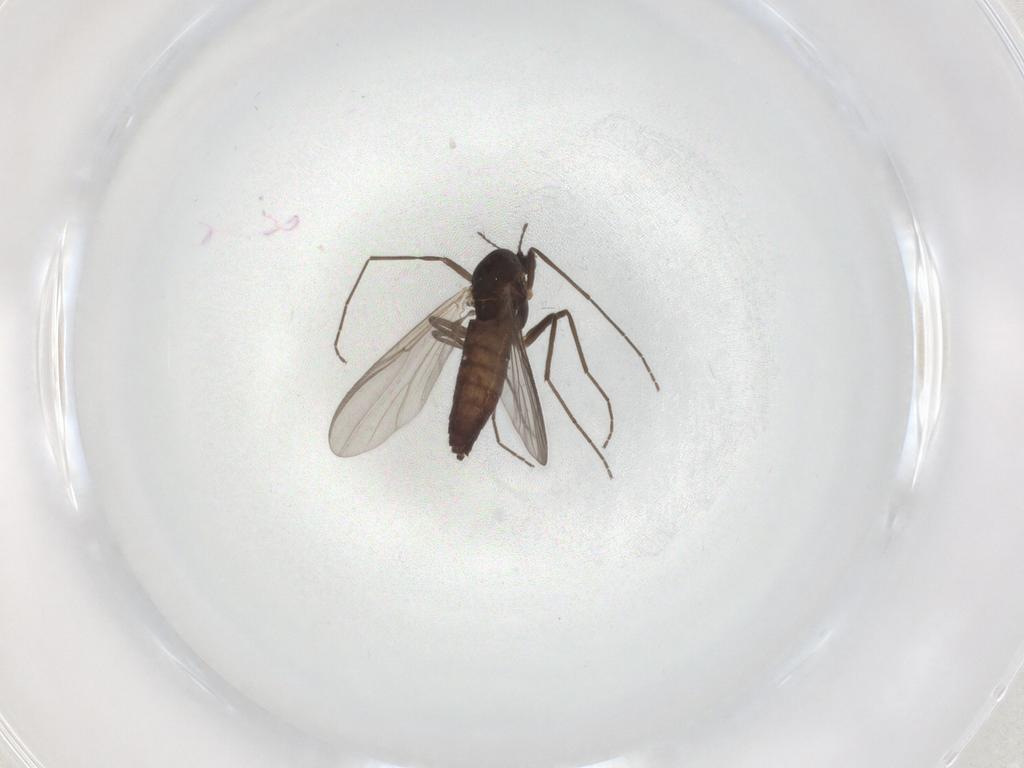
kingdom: Animalia
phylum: Arthropoda
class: Insecta
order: Diptera
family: Chironomidae
